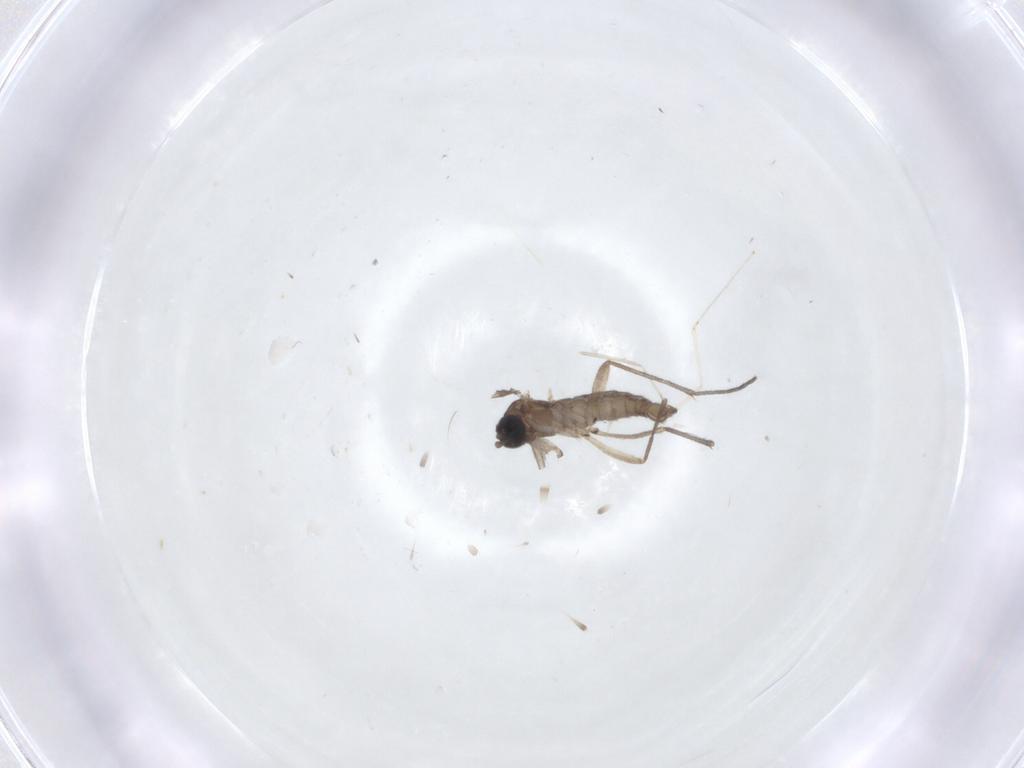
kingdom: Animalia
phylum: Arthropoda
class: Insecta
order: Diptera
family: Sciaridae
